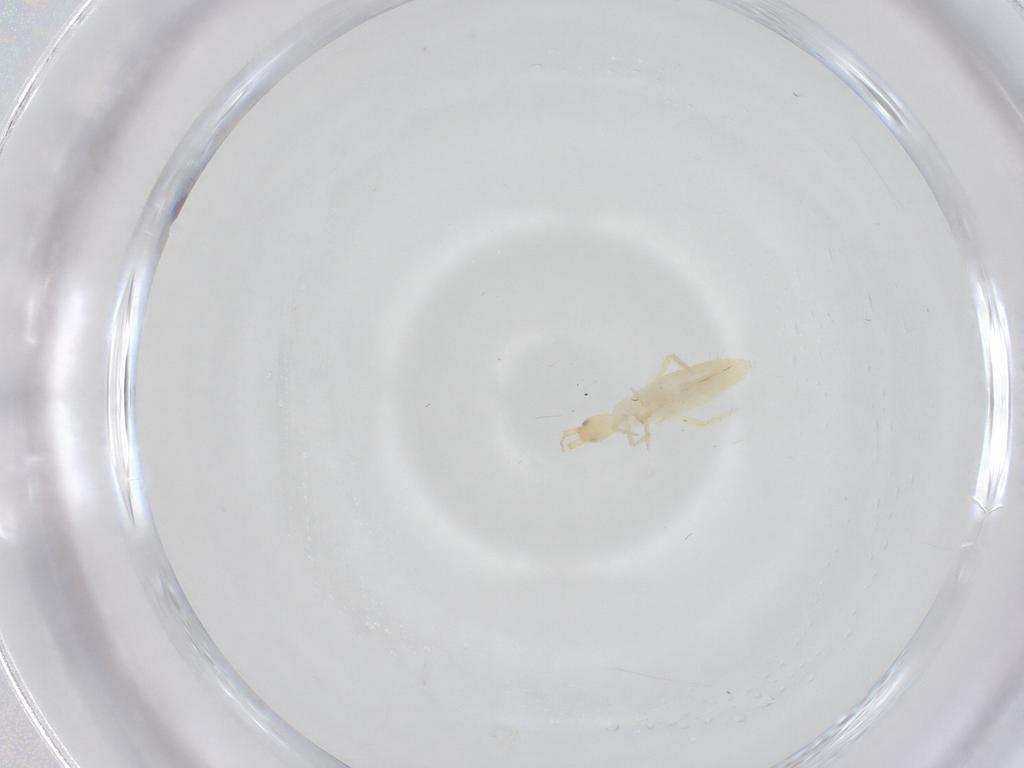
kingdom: Animalia
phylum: Arthropoda
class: Collembola
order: Entomobryomorpha
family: Entomobryidae
